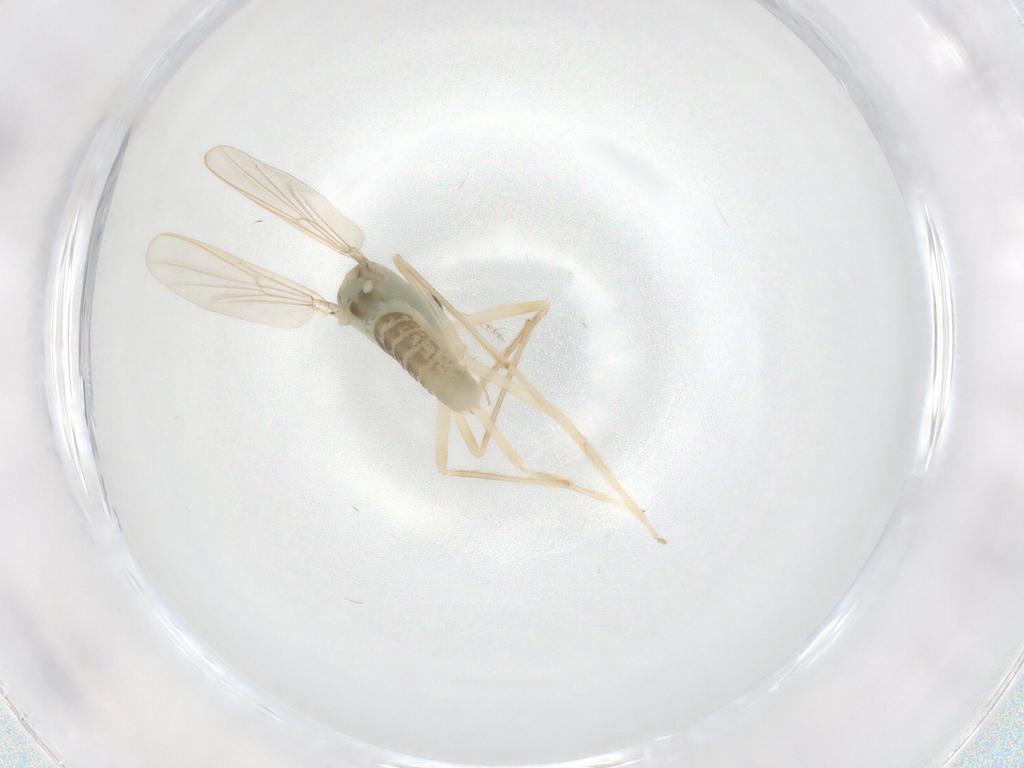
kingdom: Animalia
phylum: Arthropoda
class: Insecta
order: Diptera
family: Chironomidae
